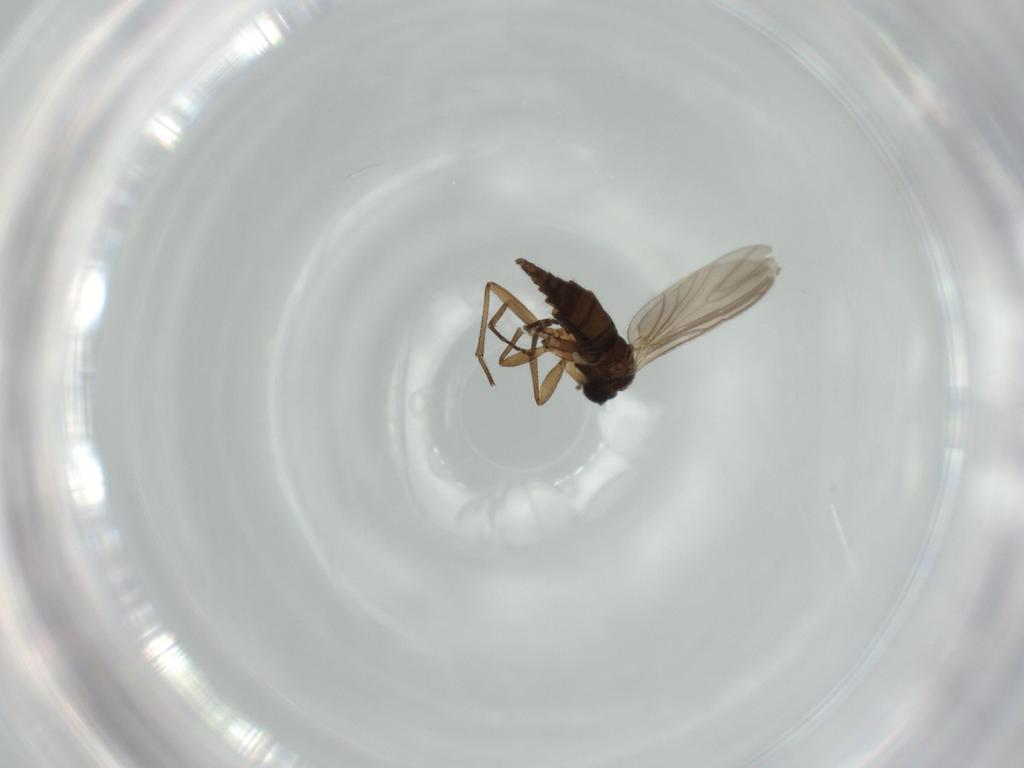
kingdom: Animalia
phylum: Arthropoda
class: Insecta
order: Diptera
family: Sciaridae
